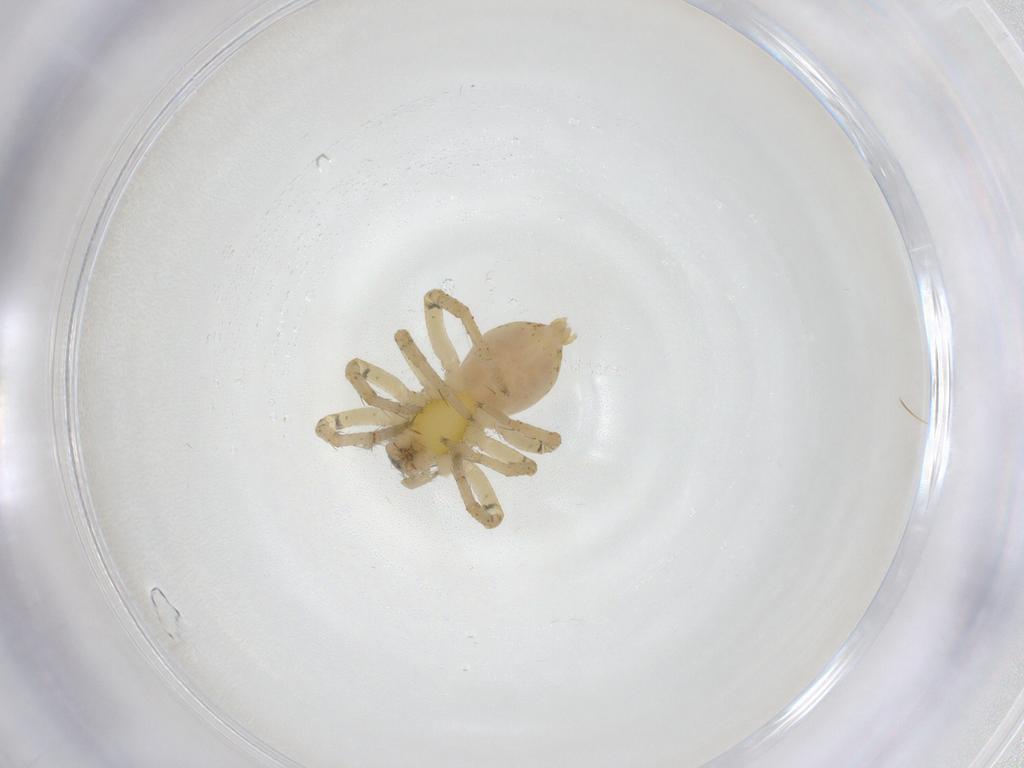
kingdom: Animalia
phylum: Arthropoda
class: Arachnida
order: Araneae
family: Anyphaenidae
